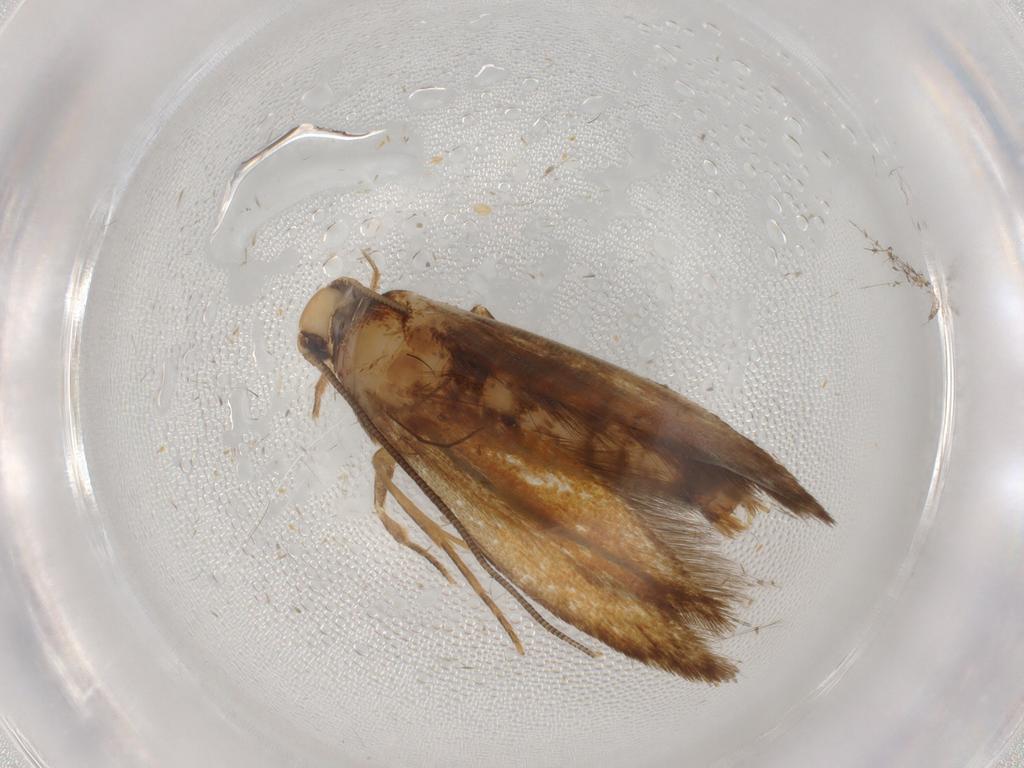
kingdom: Animalia
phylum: Arthropoda
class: Insecta
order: Lepidoptera
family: Tineidae
